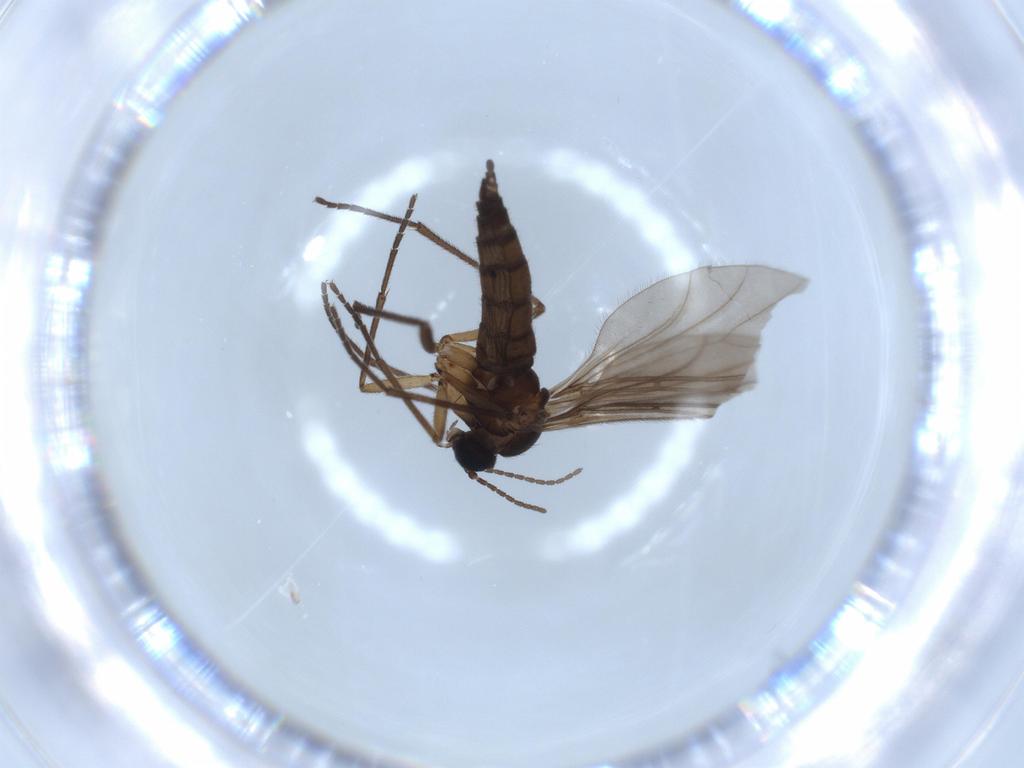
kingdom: Animalia
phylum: Arthropoda
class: Insecta
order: Diptera
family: Sciaridae
